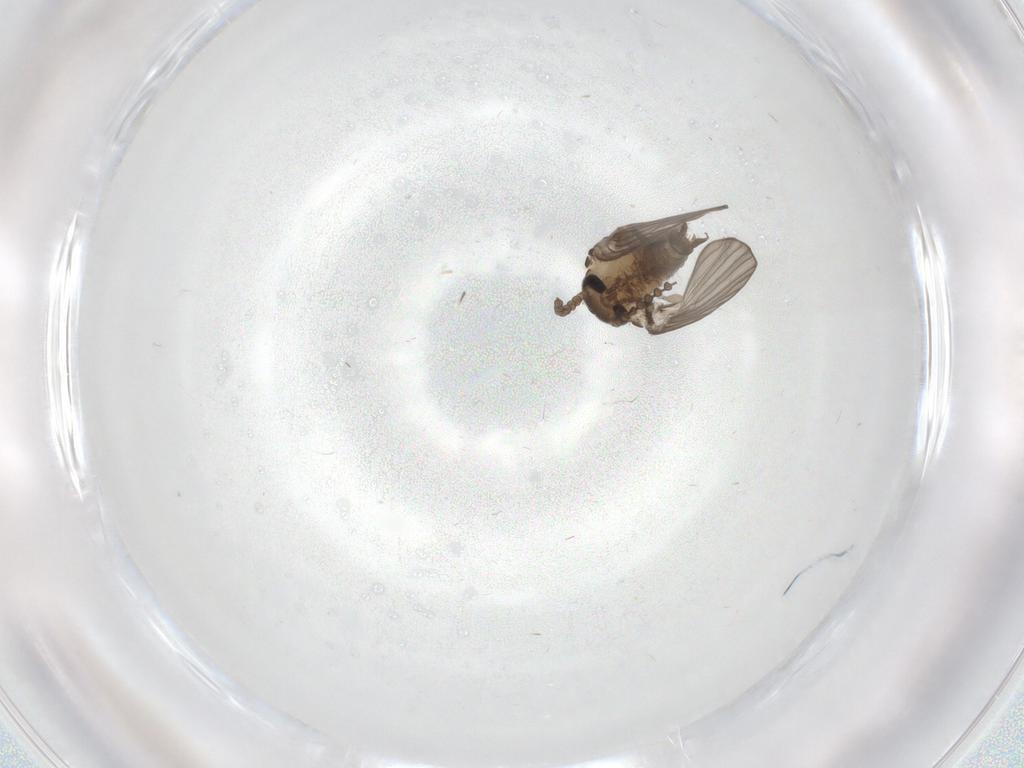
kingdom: Animalia
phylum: Arthropoda
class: Insecta
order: Diptera
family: Psychodidae
